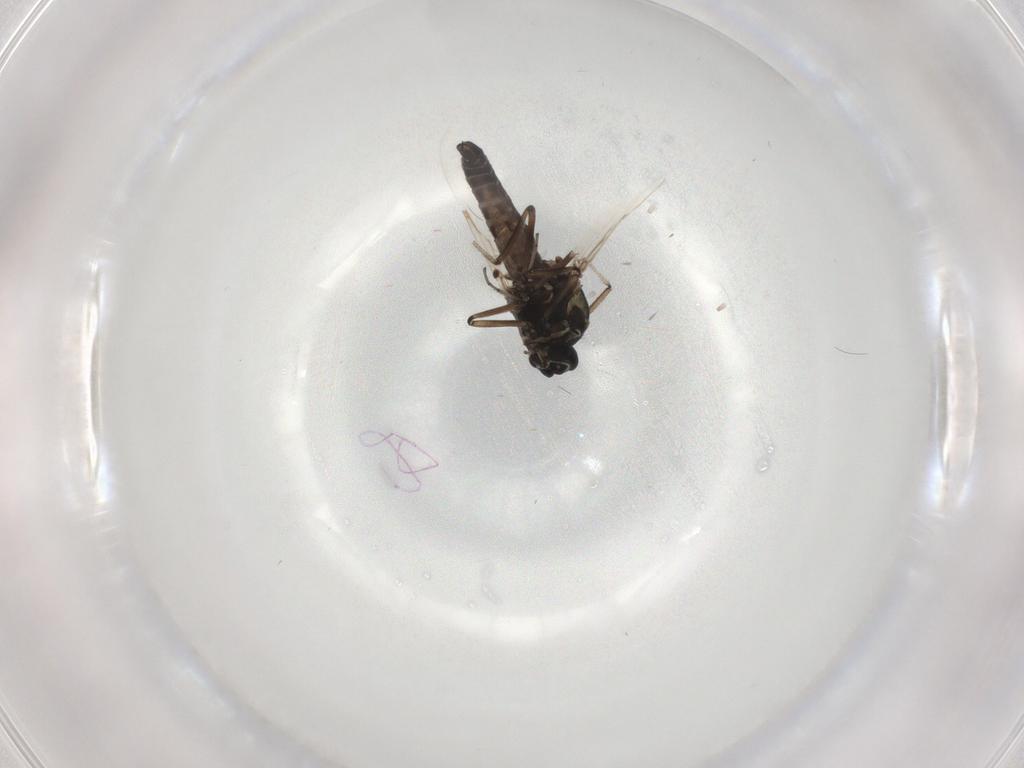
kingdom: Animalia
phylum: Arthropoda
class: Insecta
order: Diptera
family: Ceratopogonidae
